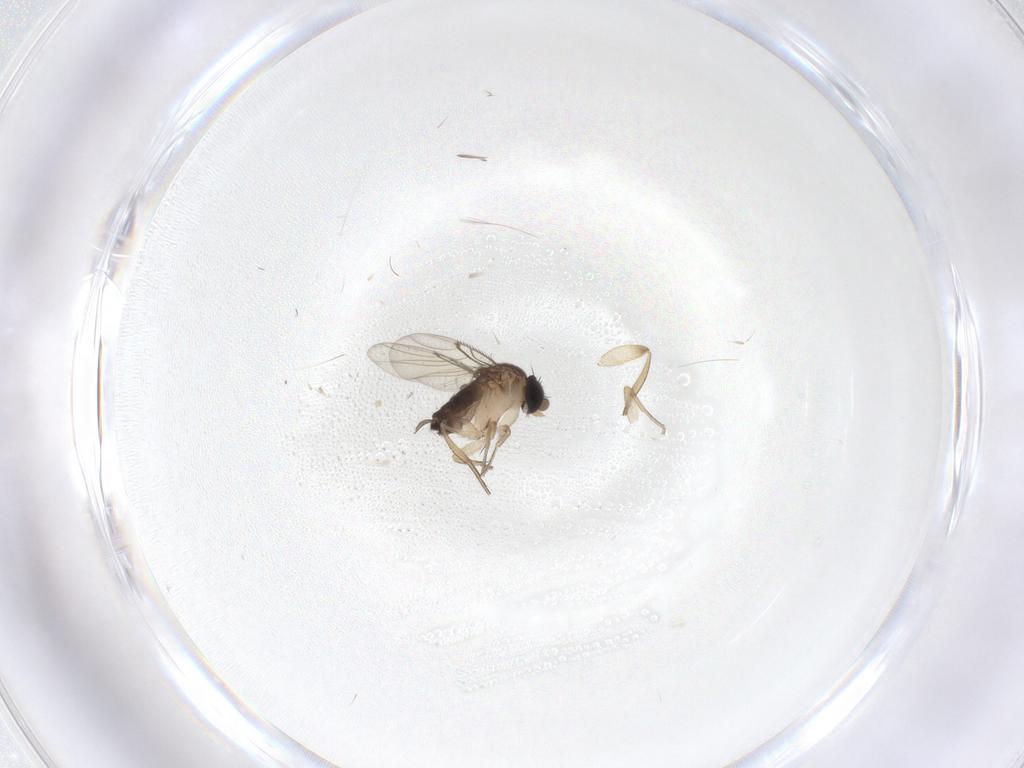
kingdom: Animalia
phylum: Arthropoda
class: Insecta
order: Diptera
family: Phoridae
